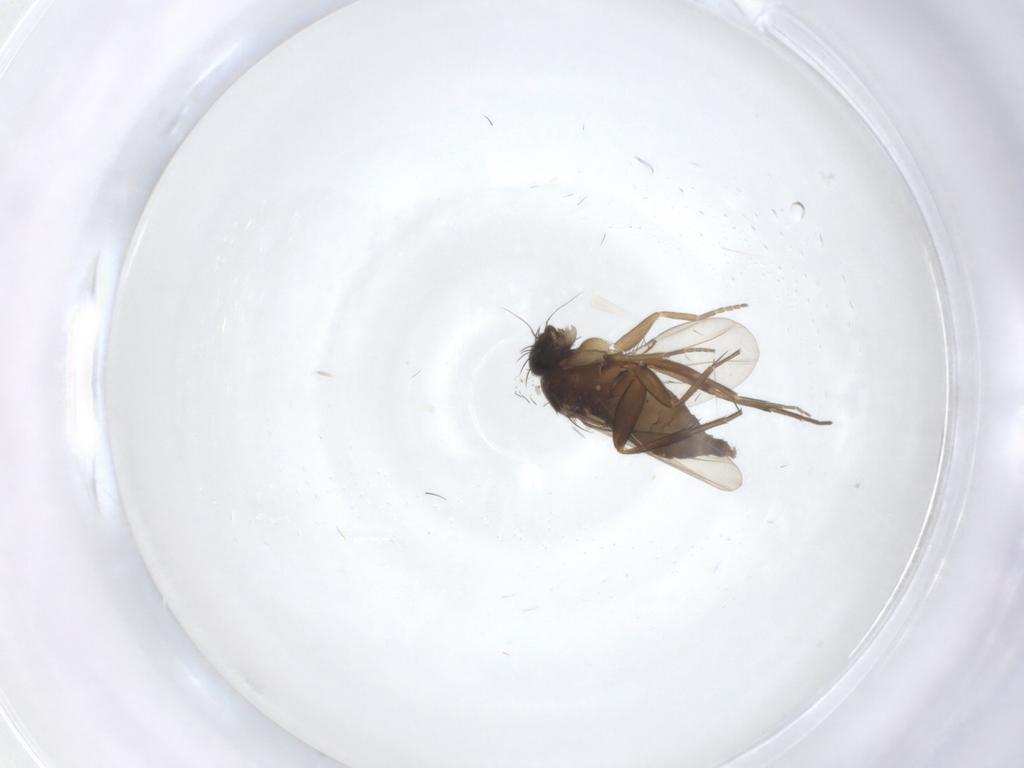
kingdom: Animalia
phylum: Arthropoda
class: Insecta
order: Diptera
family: Phoridae
